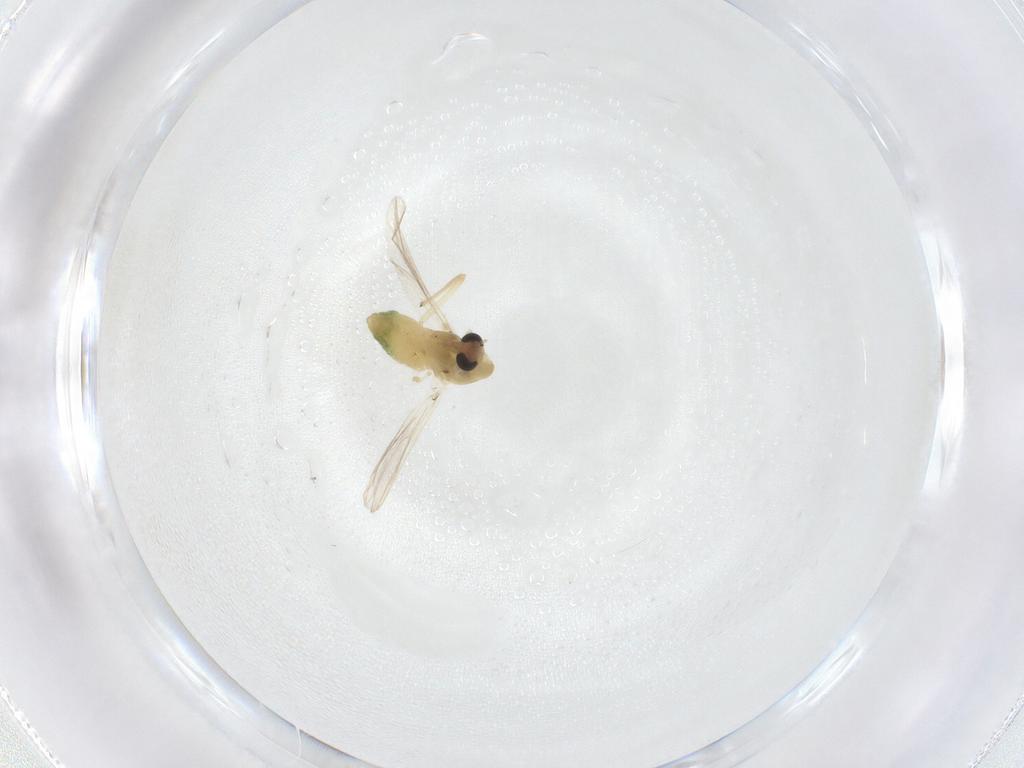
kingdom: Animalia
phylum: Arthropoda
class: Insecta
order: Diptera
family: Chironomidae
